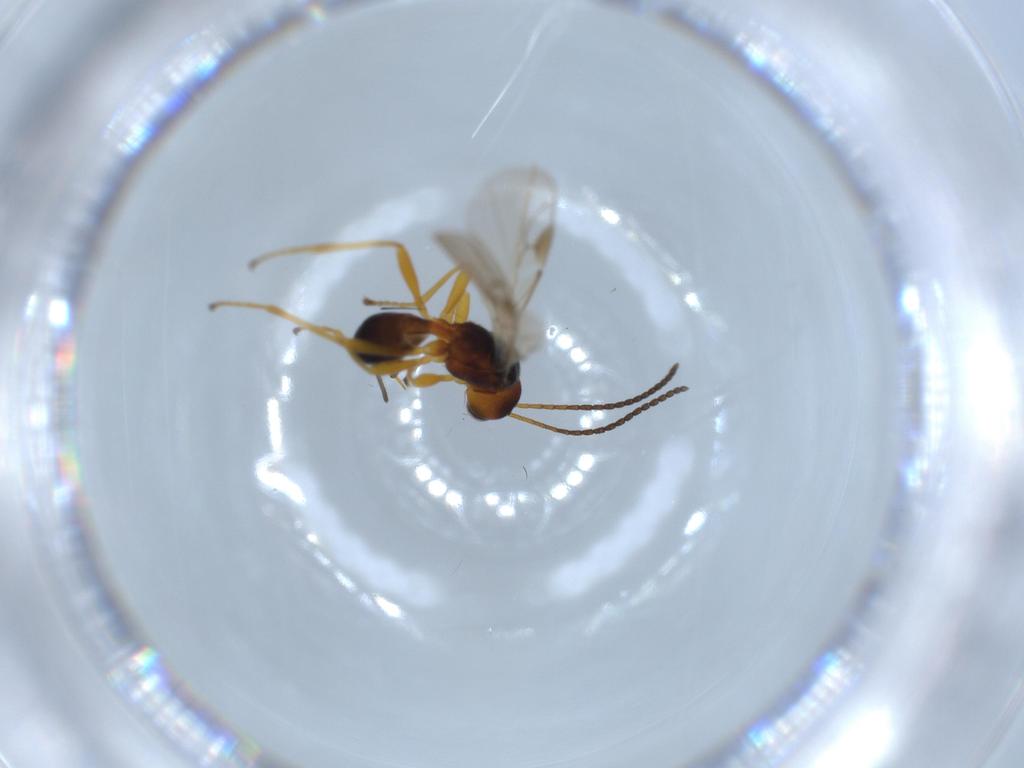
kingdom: Animalia
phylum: Arthropoda
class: Insecta
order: Hymenoptera
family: Braconidae
